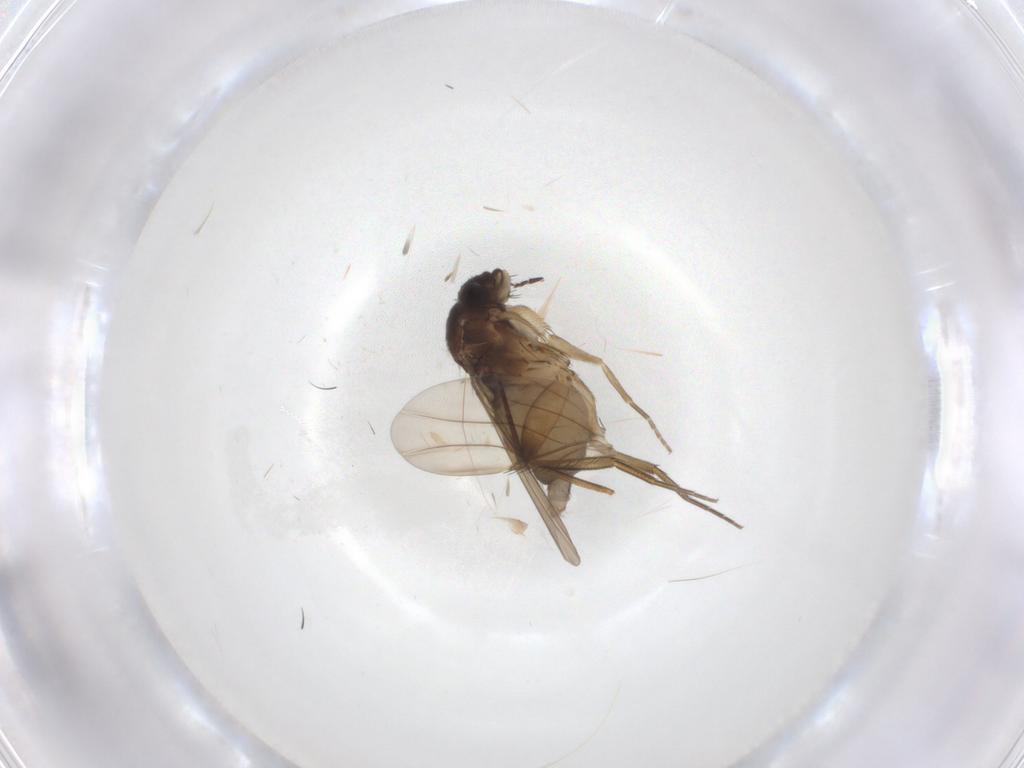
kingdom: Animalia
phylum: Arthropoda
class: Insecta
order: Diptera
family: Phoridae
